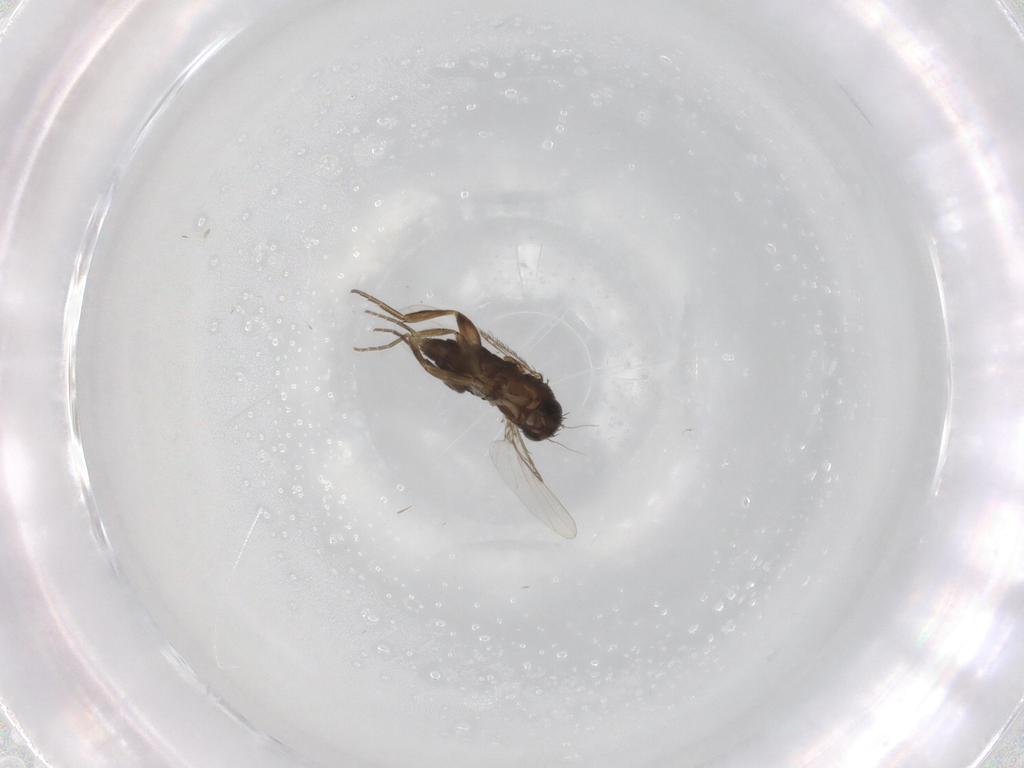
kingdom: Animalia
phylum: Arthropoda
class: Insecta
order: Diptera
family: Phoridae
